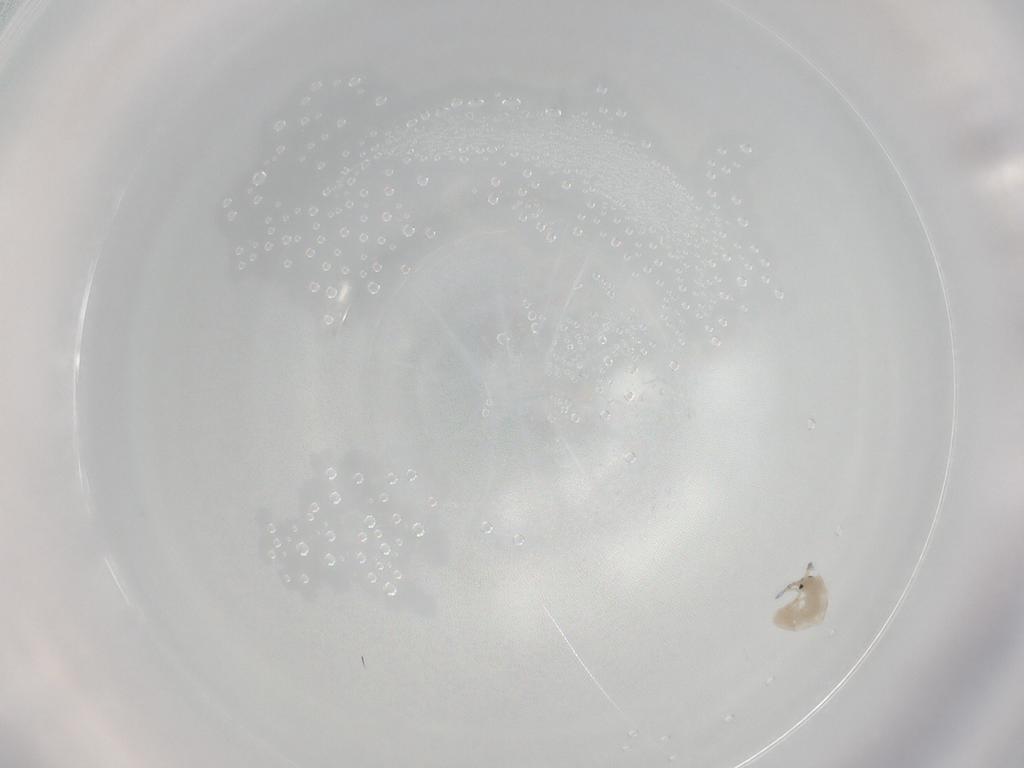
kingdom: Animalia
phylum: Arthropoda
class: Collembola
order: Entomobryomorpha
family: Entomobryidae
